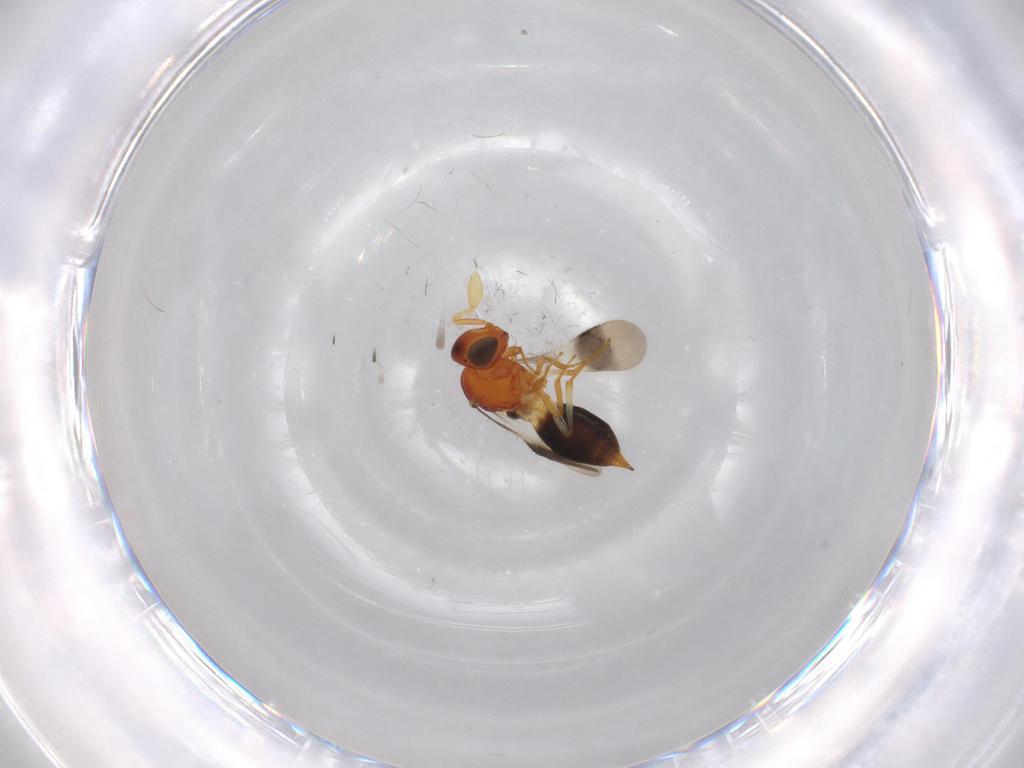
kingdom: Animalia
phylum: Arthropoda
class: Insecta
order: Hymenoptera
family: Scelionidae
